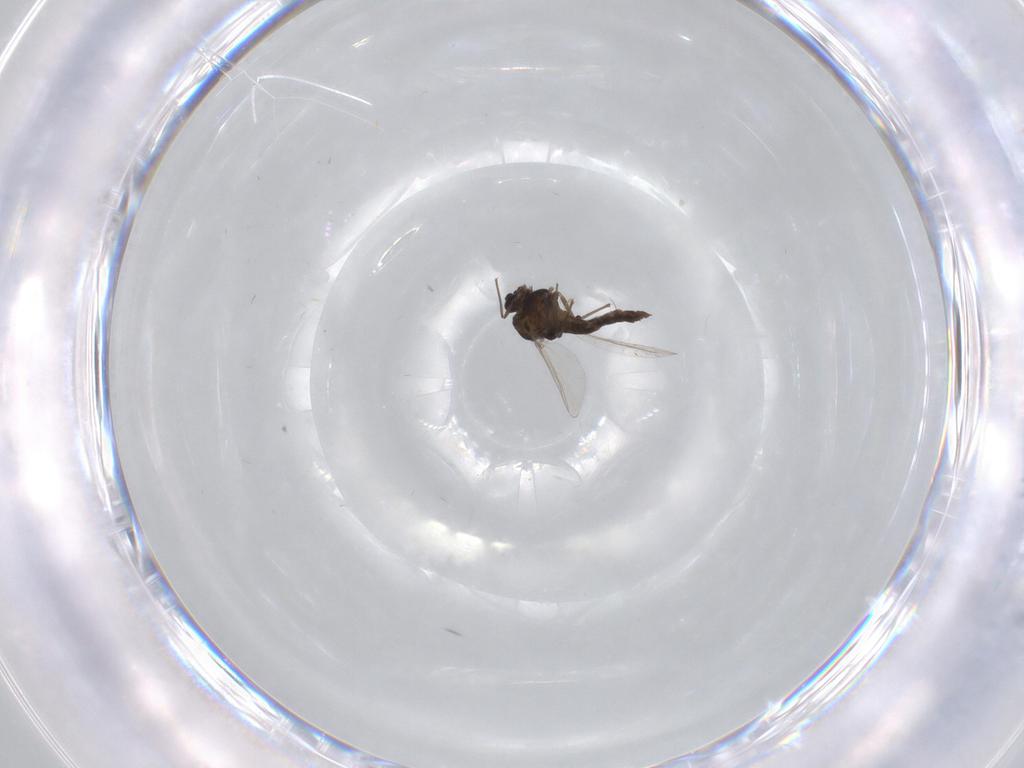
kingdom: Animalia
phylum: Arthropoda
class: Insecta
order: Diptera
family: Chironomidae
